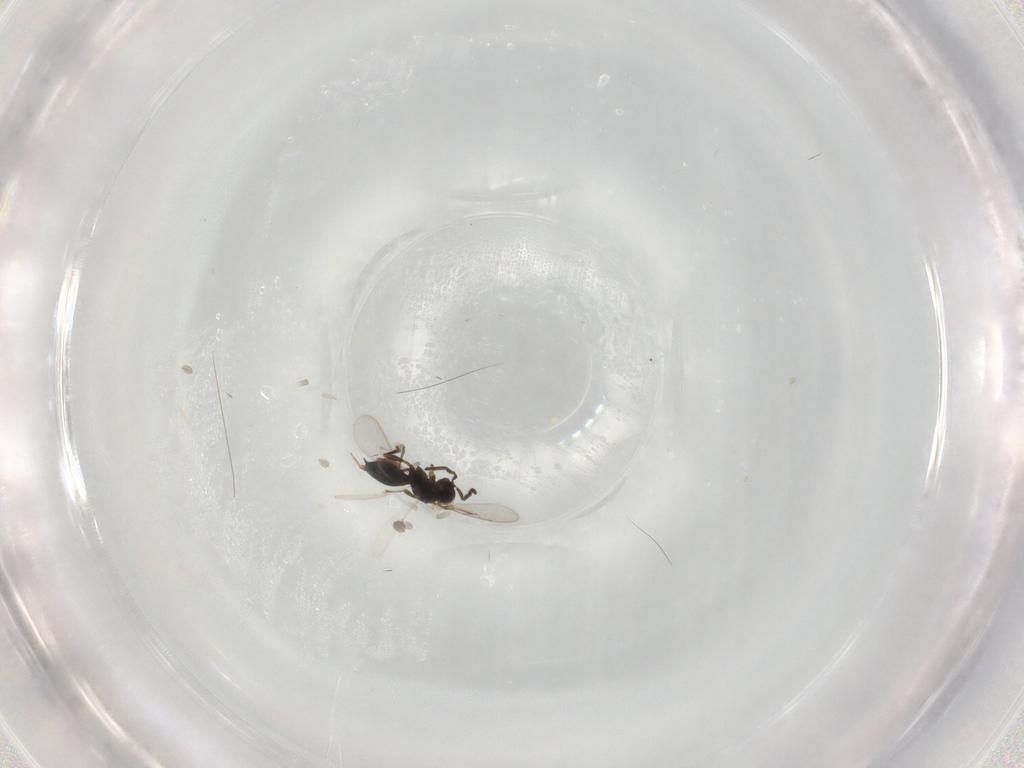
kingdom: Animalia
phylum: Arthropoda
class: Insecta
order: Hymenoptera
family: Scelionidae
